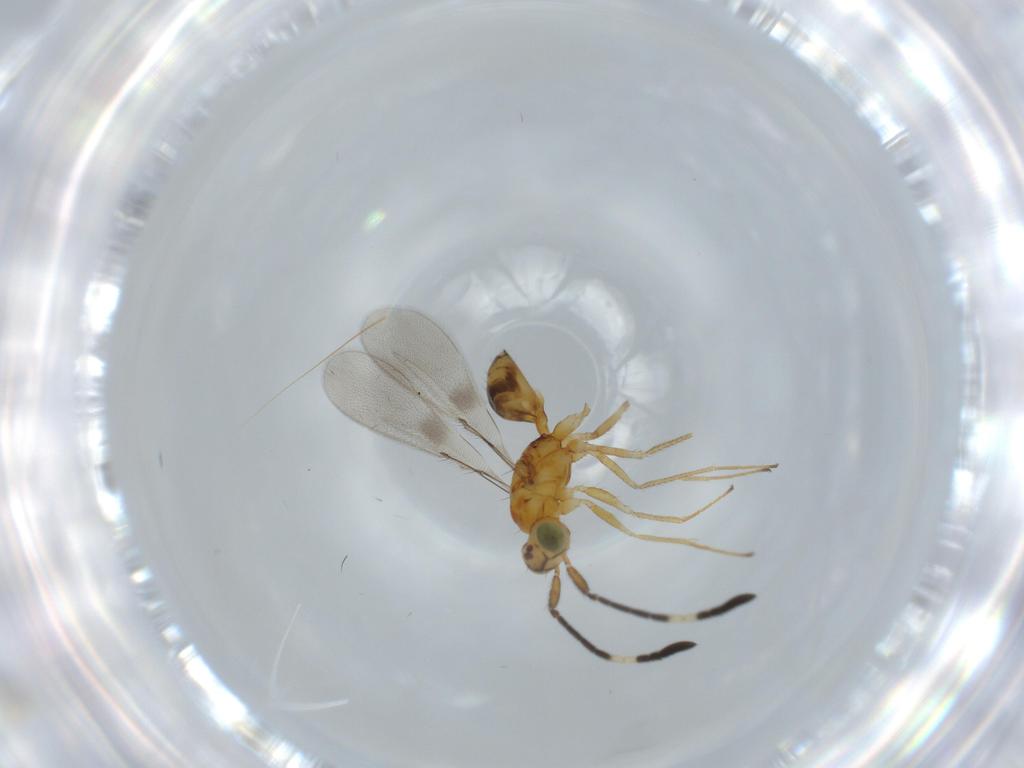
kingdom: Animalia
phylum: Arthropoda
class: Insecta
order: Hymenoptera
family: Mymaridae
